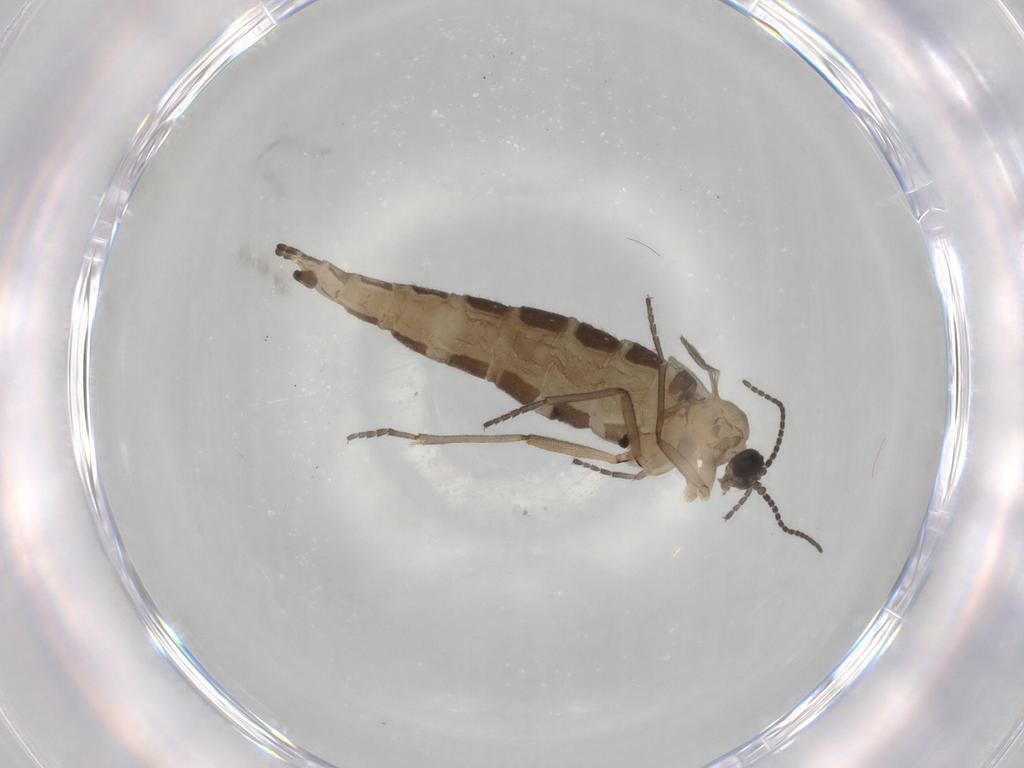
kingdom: Animalia
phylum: Arthropoda
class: Insecta
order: Diptera
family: Sciaridae
